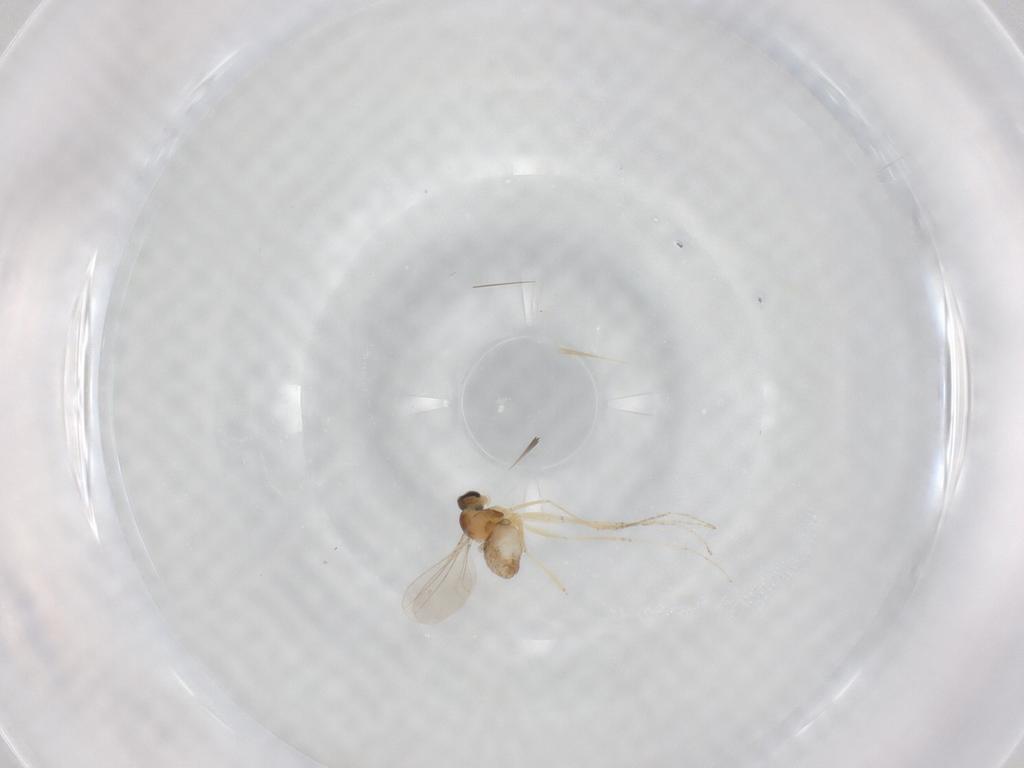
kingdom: Animalia
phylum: Arthropoda
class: Insecta
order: Diptera
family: Cecidomyiidae
